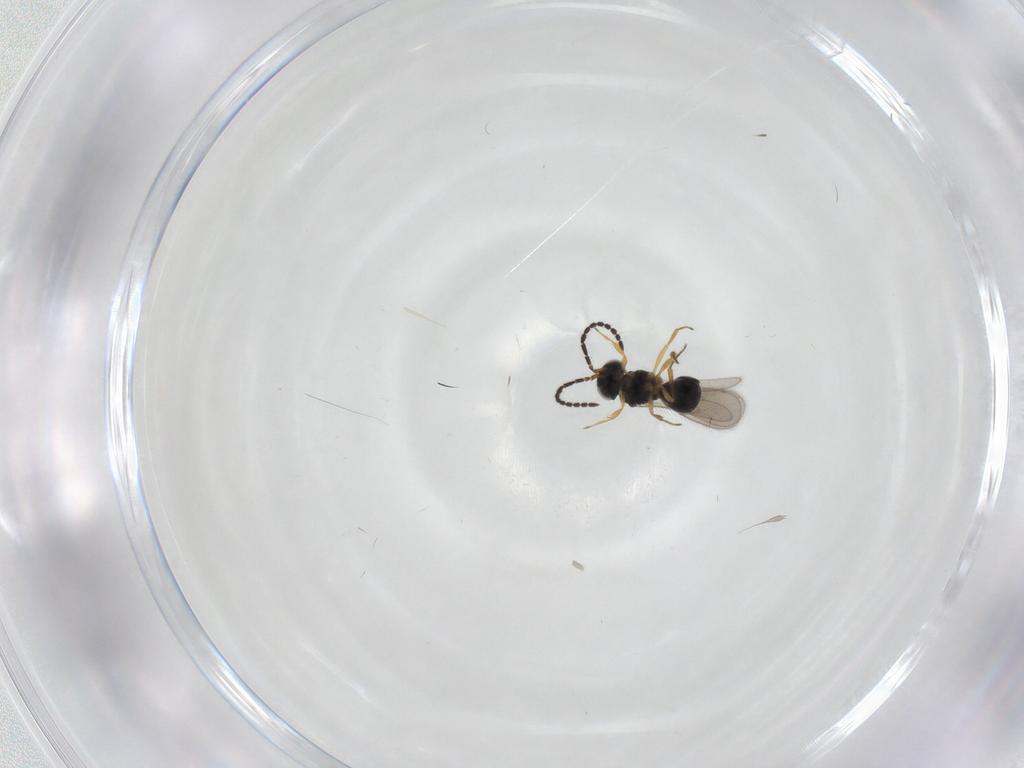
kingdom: Animalia
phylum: Arthropoda
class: Insecta
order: Hymenoptera
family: Scelionidae
